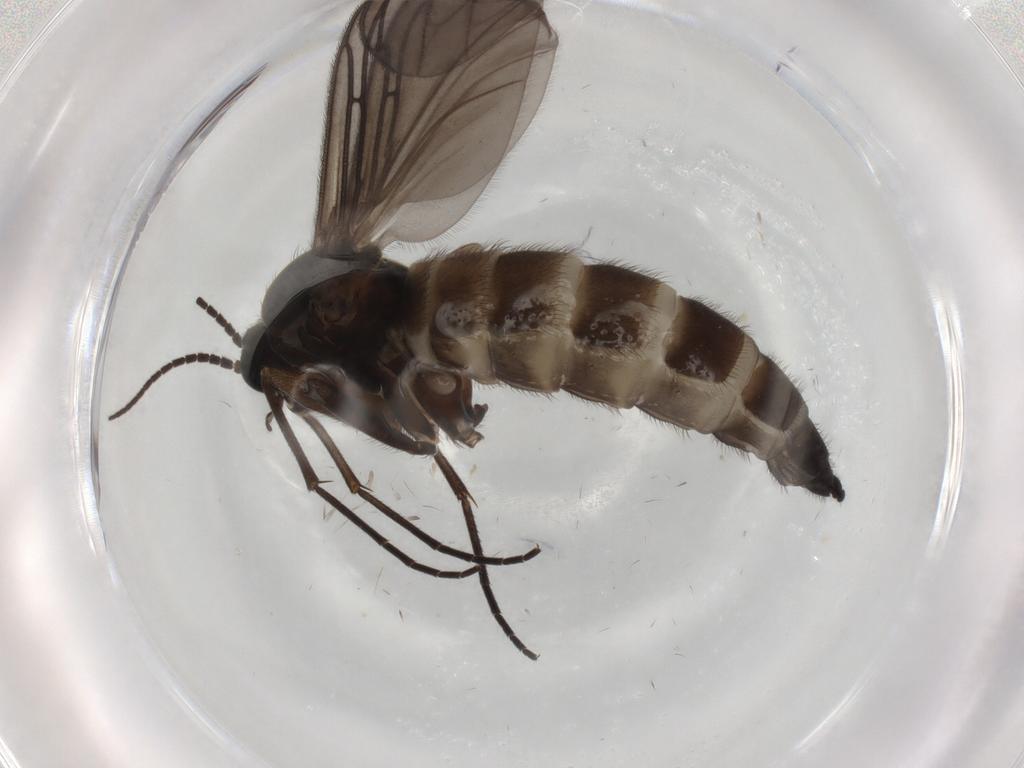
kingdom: Animalia
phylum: Arthropoda
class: Insecta
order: Diptera
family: Sciaridae
